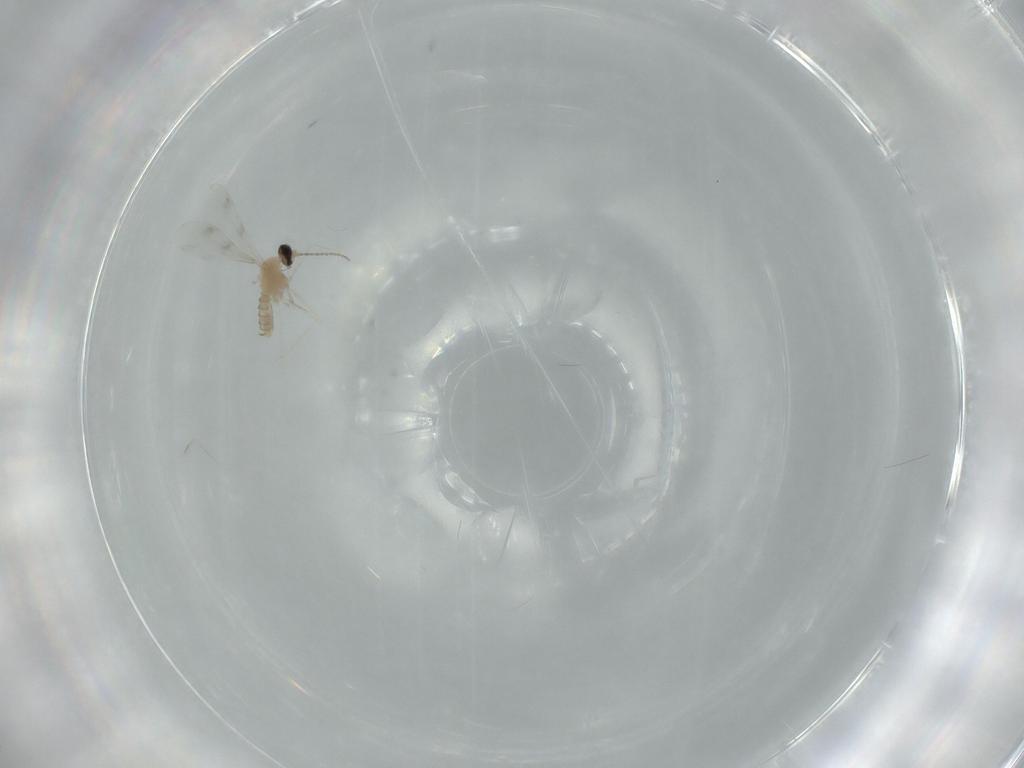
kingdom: Animalia
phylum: Arthropoda
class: Insecta
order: Diptera
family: Cecidomyiidae
